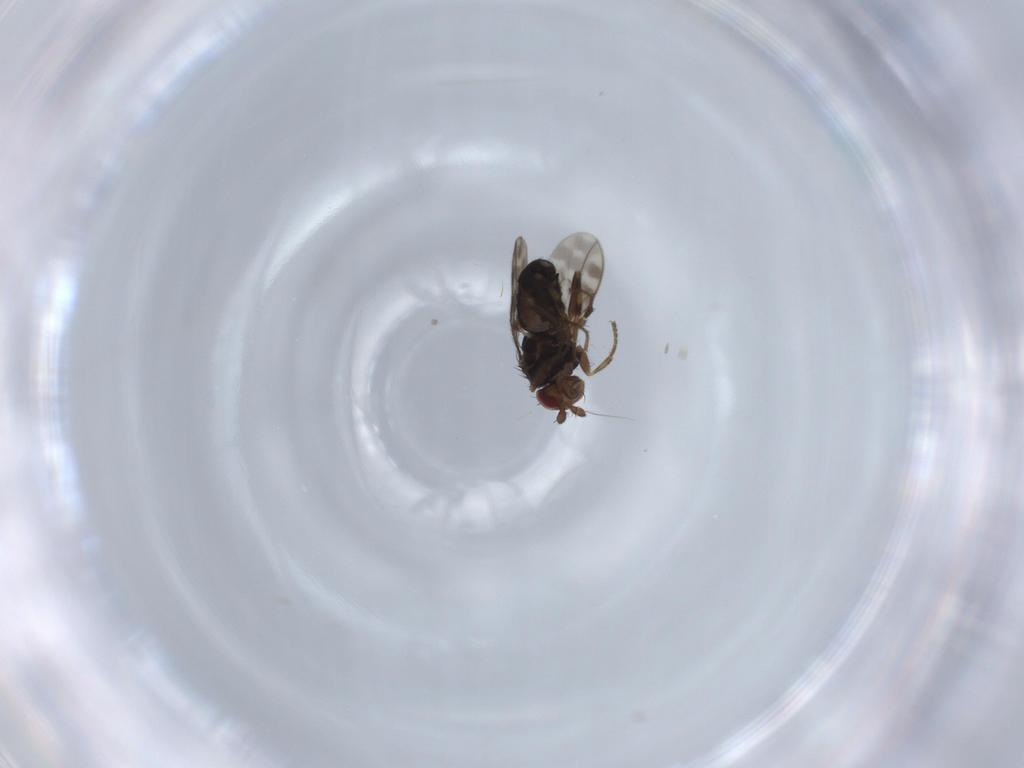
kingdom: Animalia
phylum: Arthropoda
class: Insecta
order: Diptera
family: Sphaeroceridae
